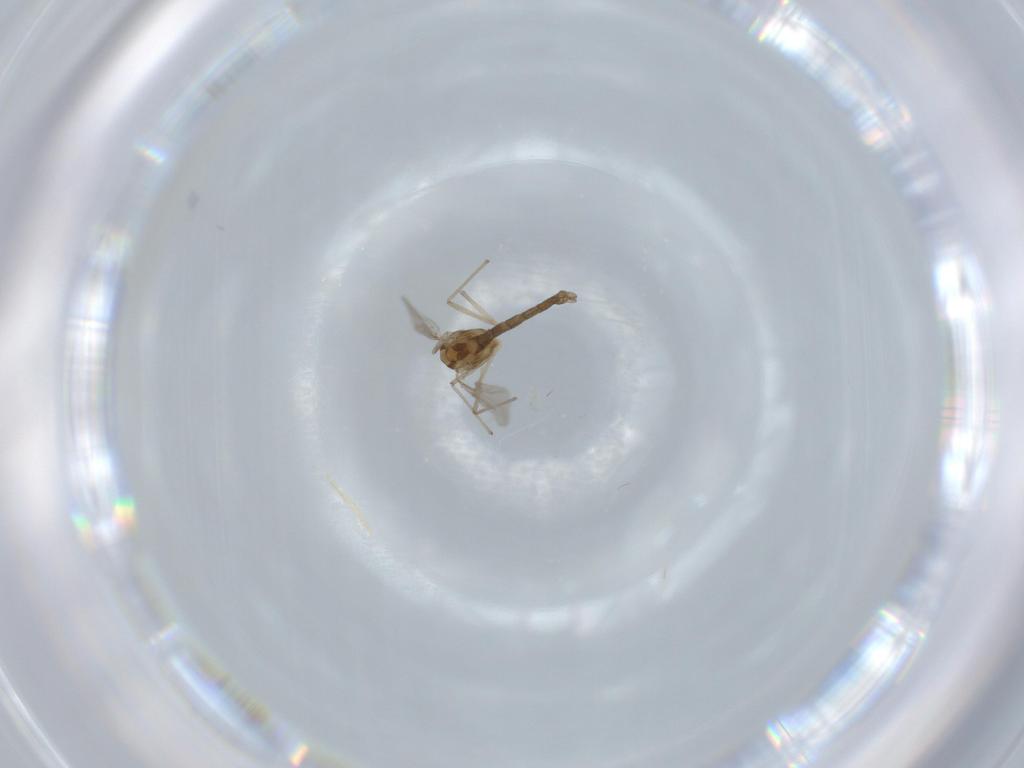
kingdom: Animalia
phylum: Arthropoda
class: Insecta
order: Diptera
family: Chironomidae
